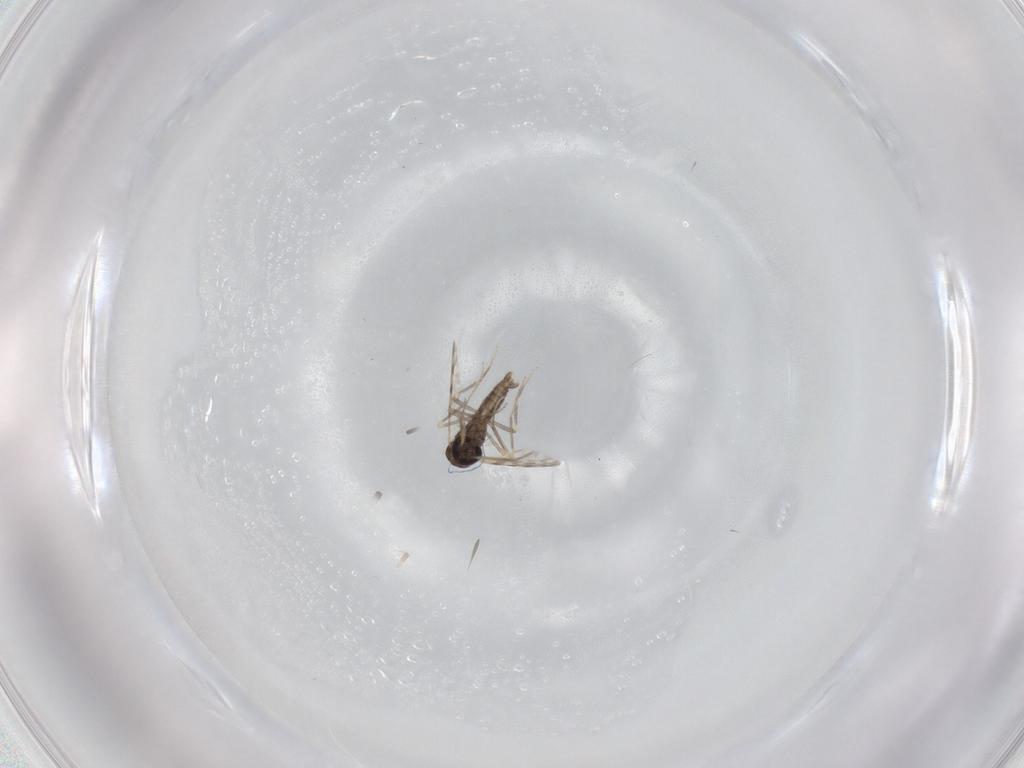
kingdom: Animalia
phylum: Arthropoda
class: Insecta
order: Diptera
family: Ceratopogonidae
